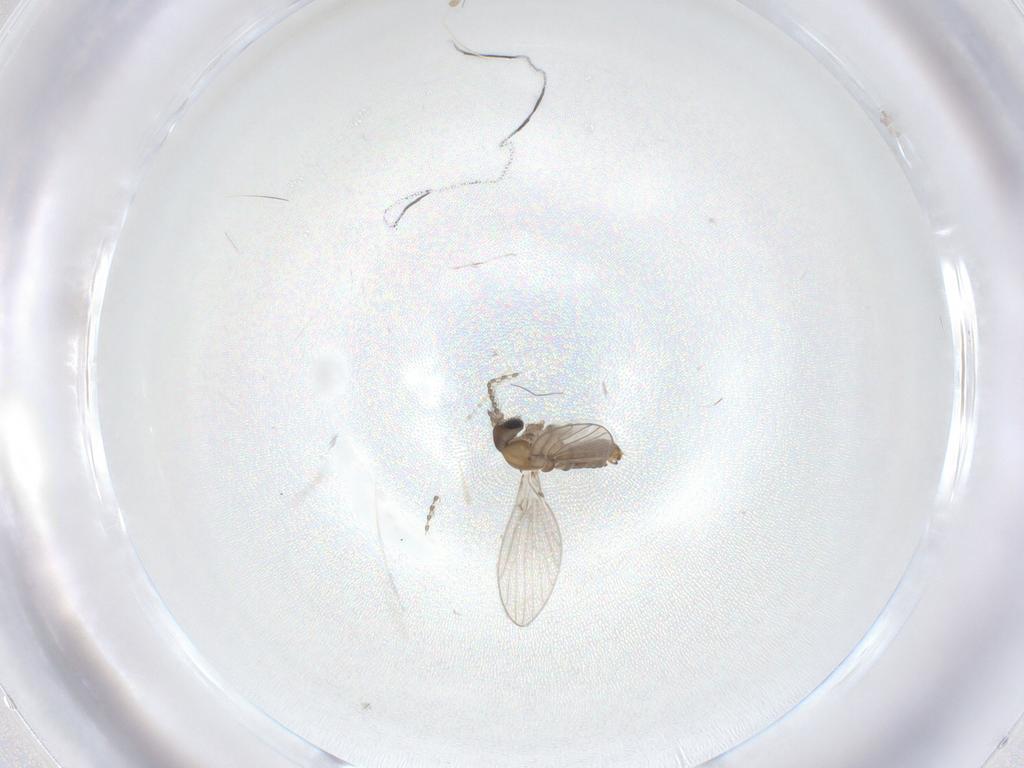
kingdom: Animalia
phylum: Arthropoda
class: Insecta
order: Diptera
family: Cecidomyiidae
